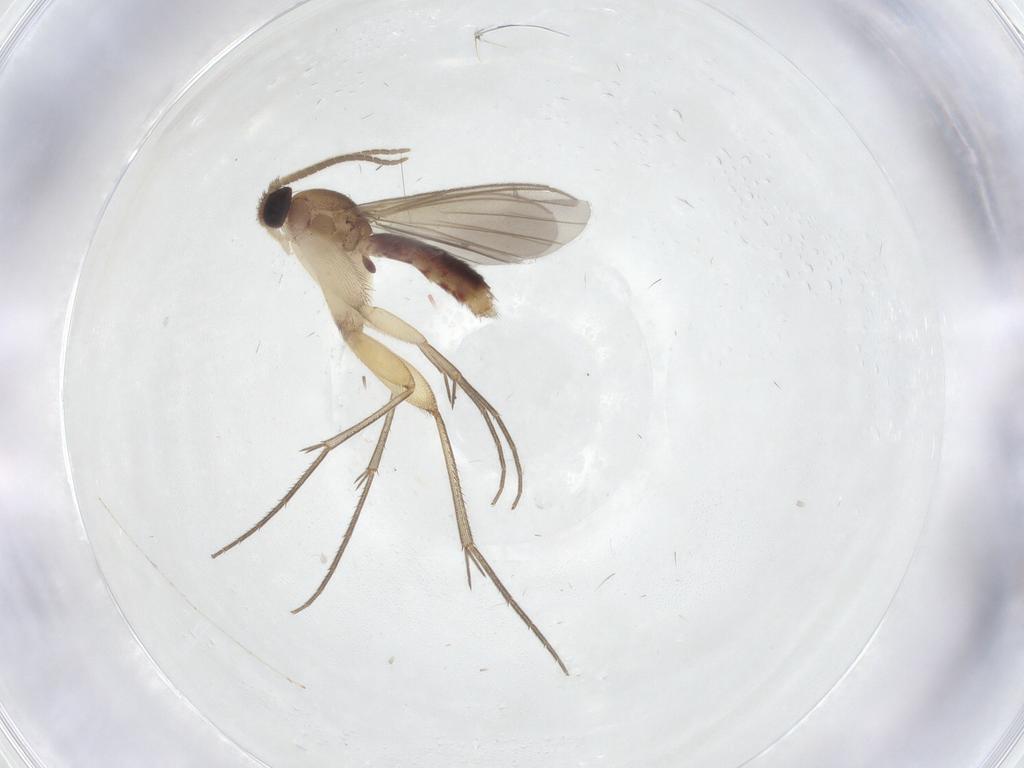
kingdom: Animalia
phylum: Arthropoda
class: Insecta
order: Diptera
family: Mycetophilidae
